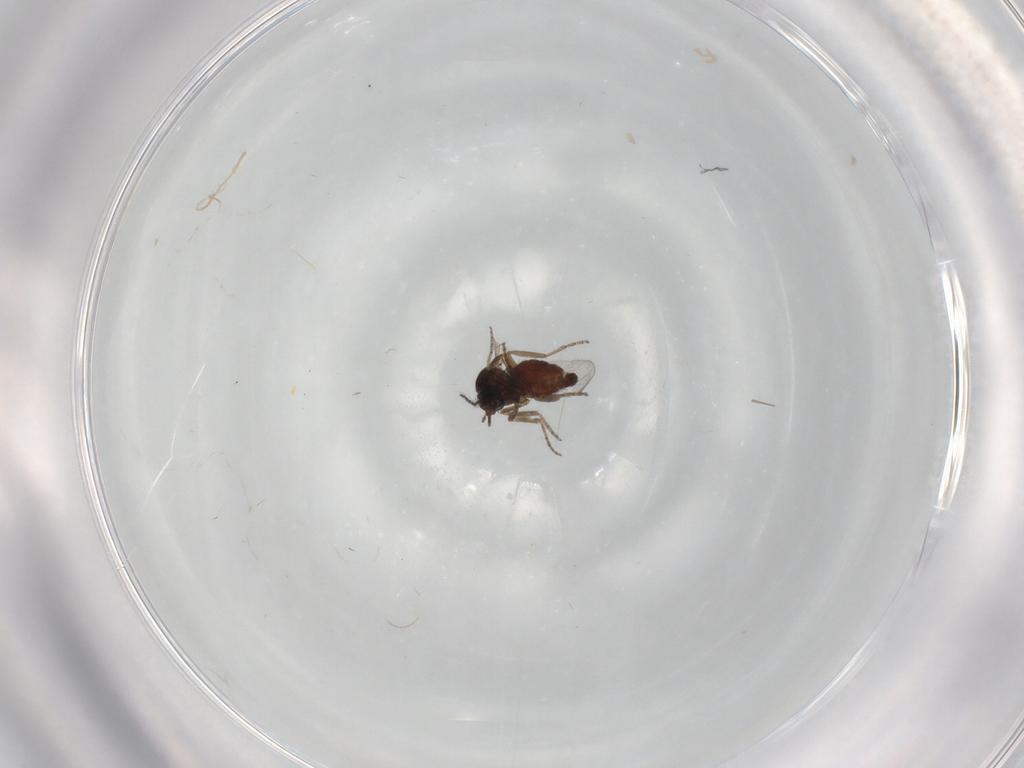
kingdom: Animalia
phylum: Arthropoda
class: Insecta
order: Diptera
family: Ceratopogonidae
